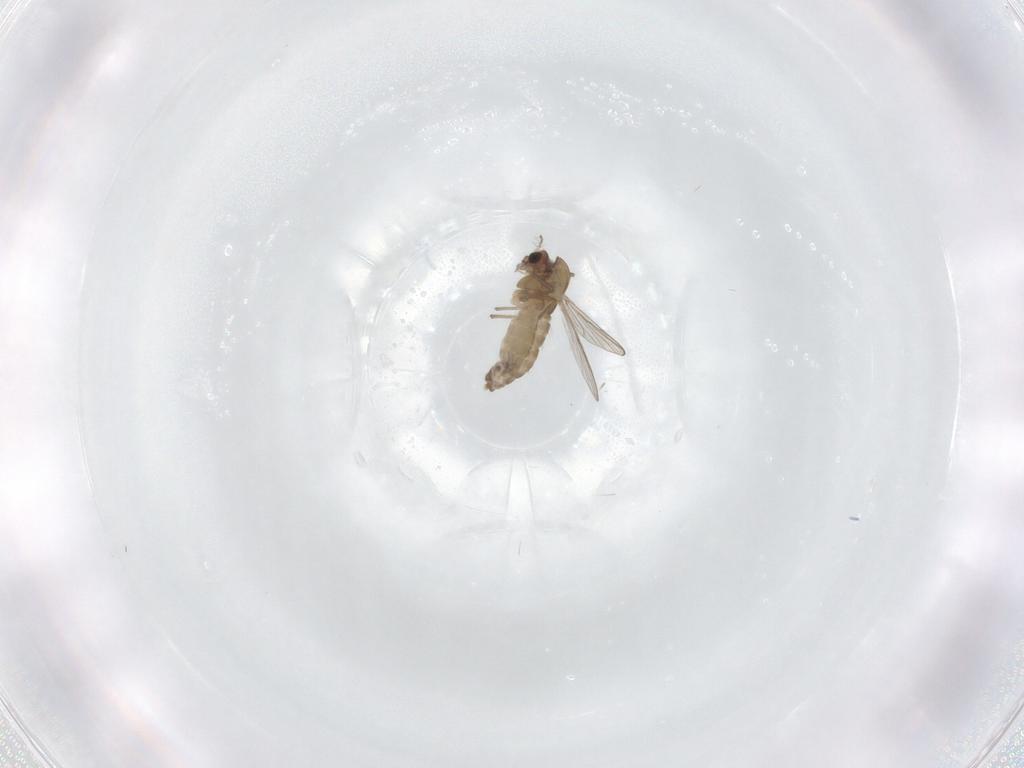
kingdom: Animalia
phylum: Arthropoda
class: Insecta
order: Diptera
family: Chironomidae
